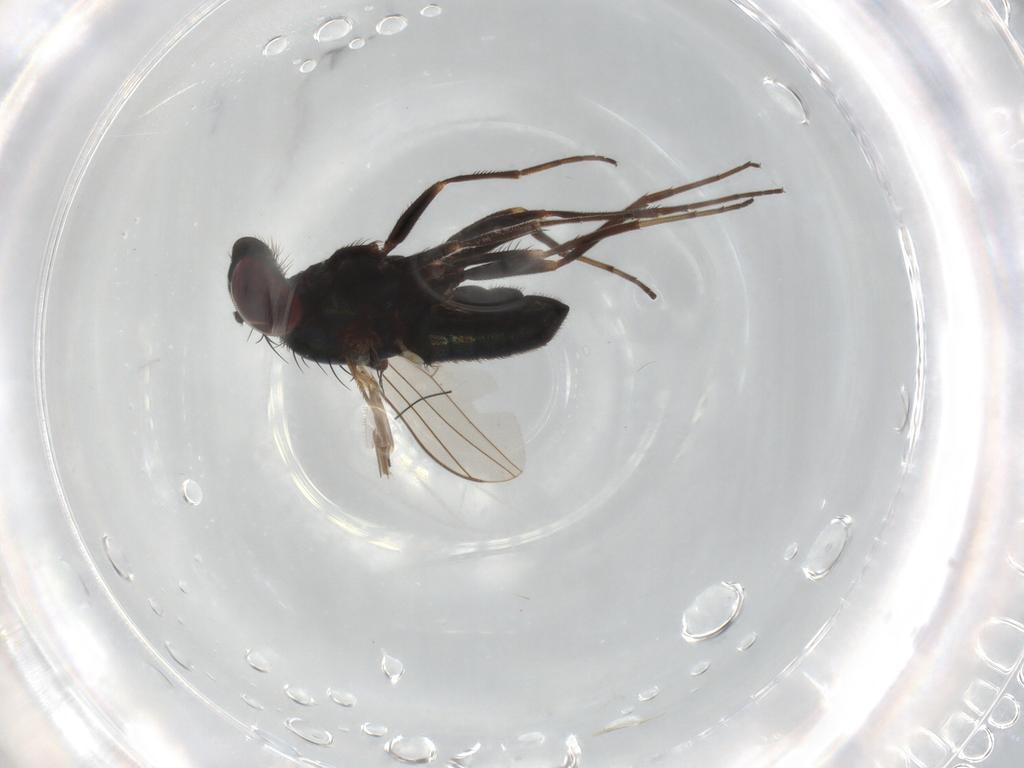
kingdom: Animalia
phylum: Arthropoda
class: Insecta
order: Diptera
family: Dolichopodidae
